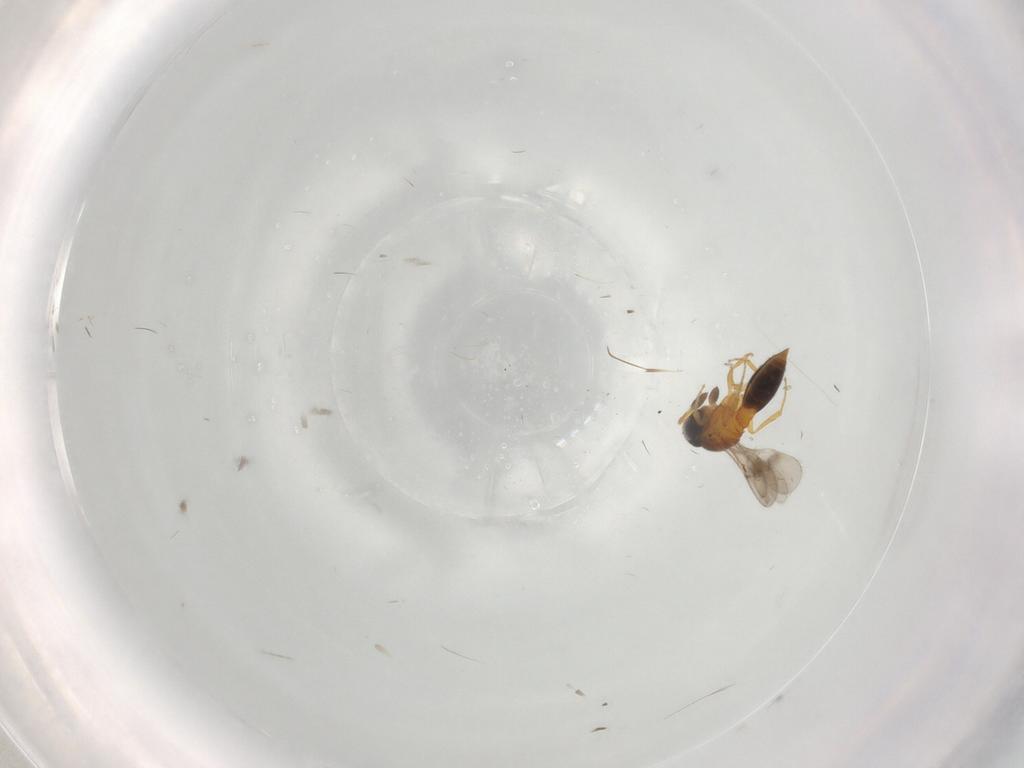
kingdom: Animalia
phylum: Arthropoda
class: Insecta
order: Hymenoptera
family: Scelionidae
